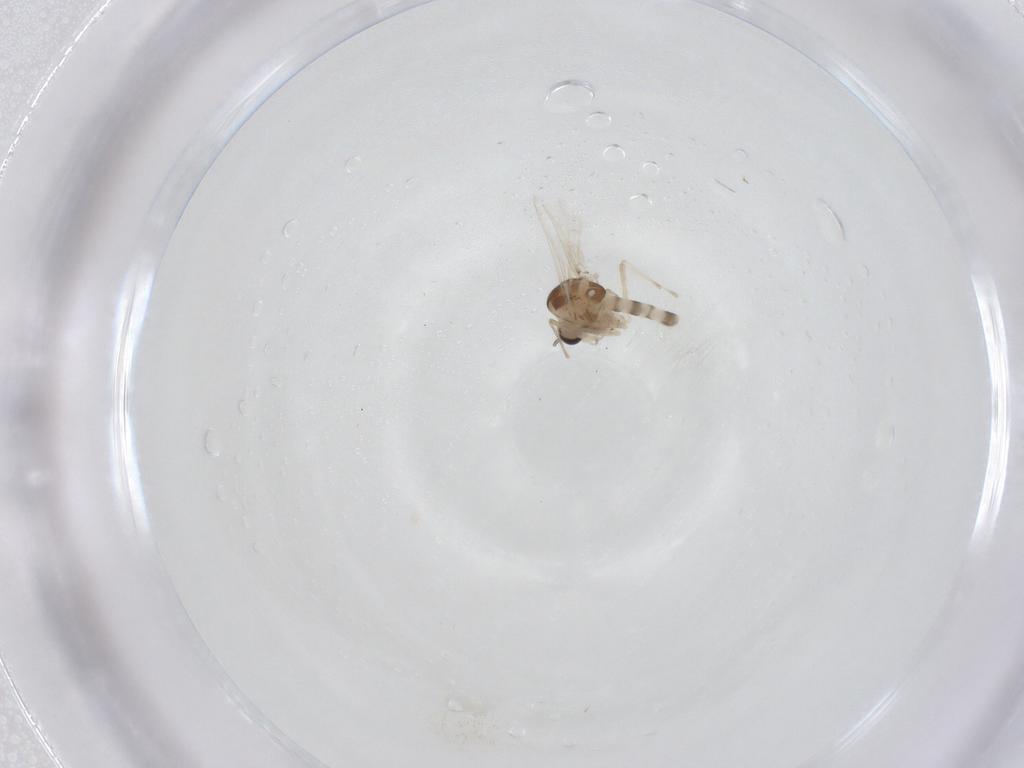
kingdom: Animalia
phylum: Arthropoda
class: Insecta
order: Diptera
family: Chironomidae
